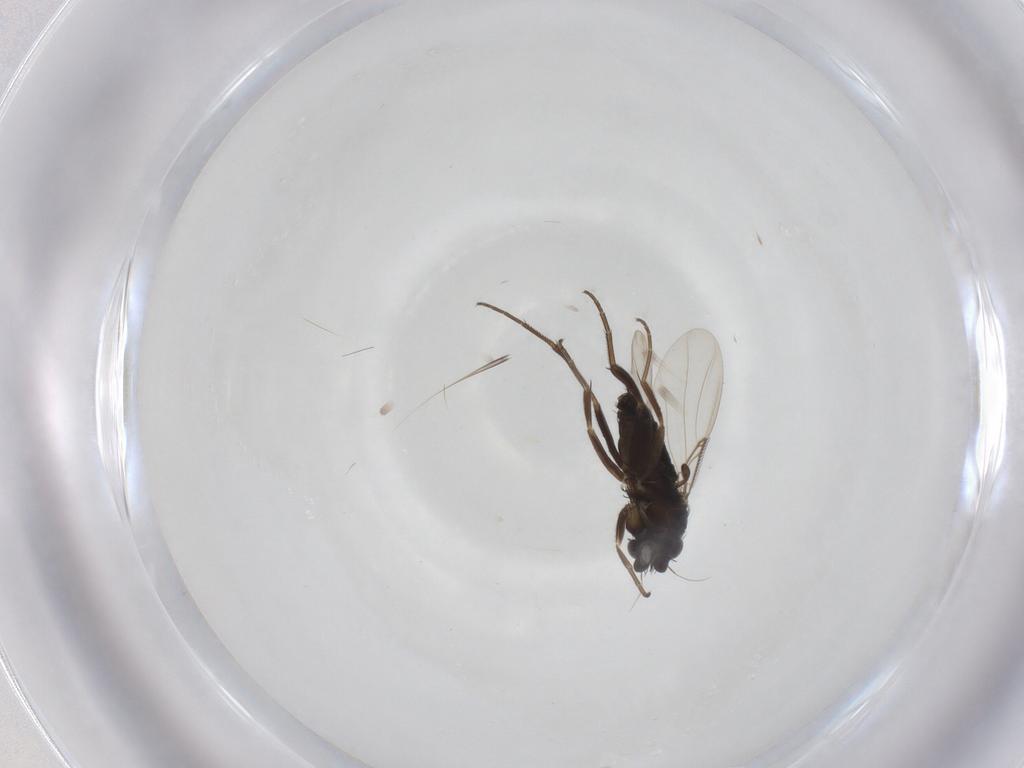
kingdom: Animalia
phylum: Arthropoda
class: Insecta
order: Diptera
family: Phoridae
